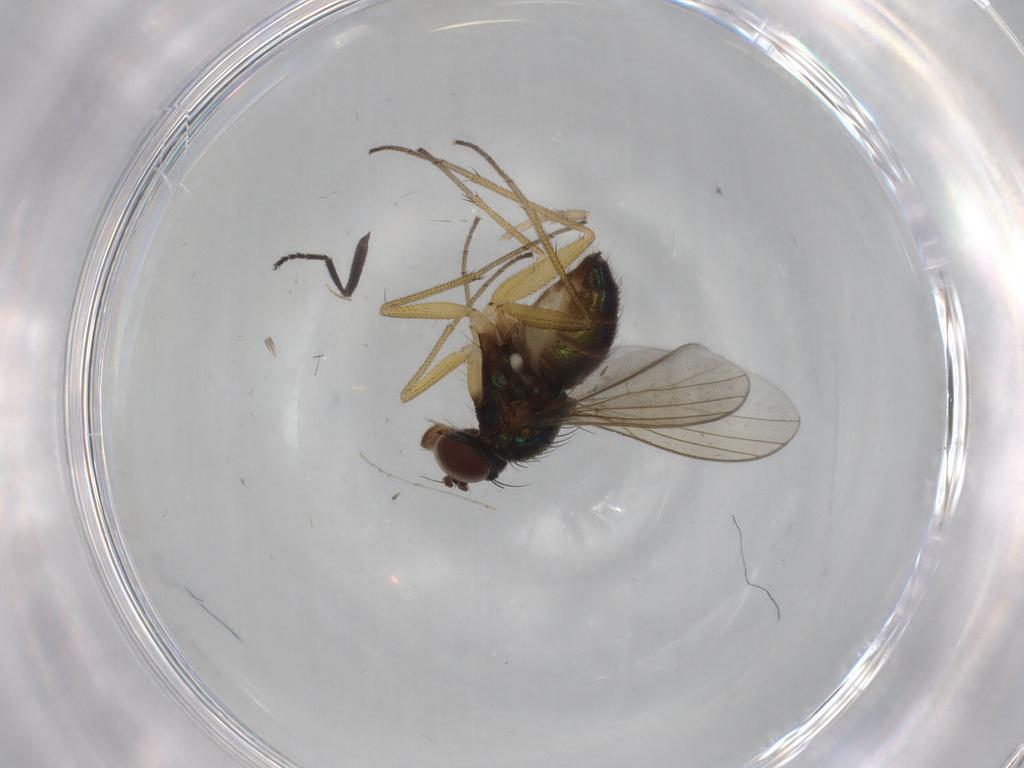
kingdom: Animalia
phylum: Arthropoda
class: Insecta
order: Diptera
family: Dolichopodidae
